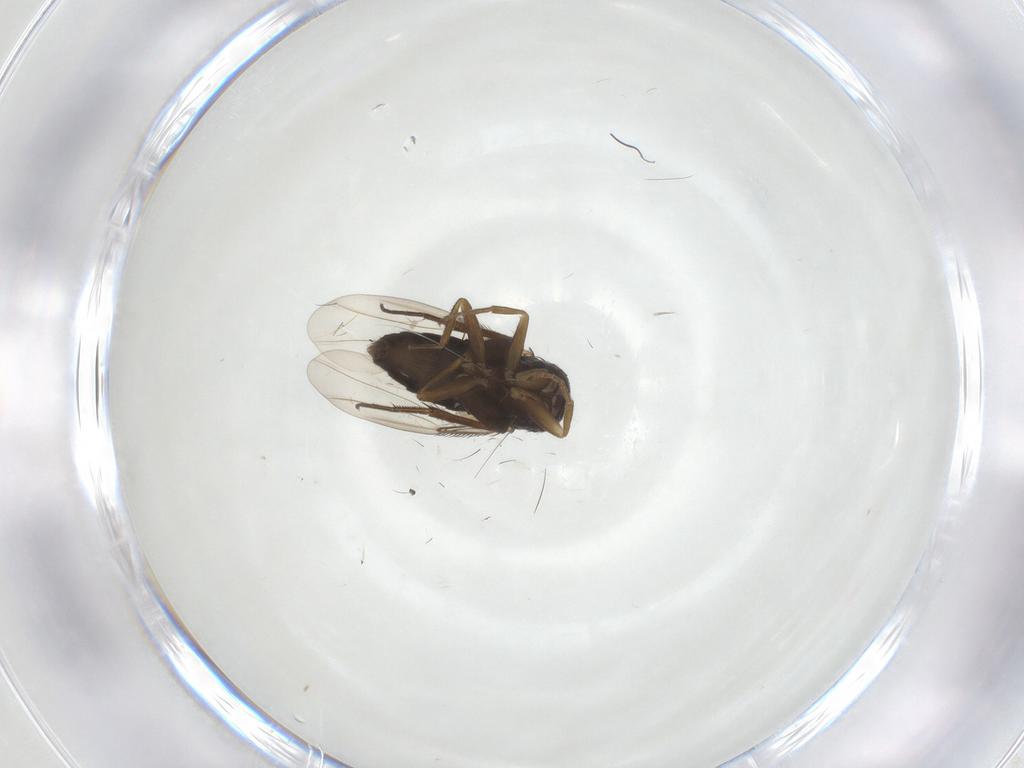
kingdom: Animalia
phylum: Arthropoda
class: Insecta
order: Diptera
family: Phoridae
